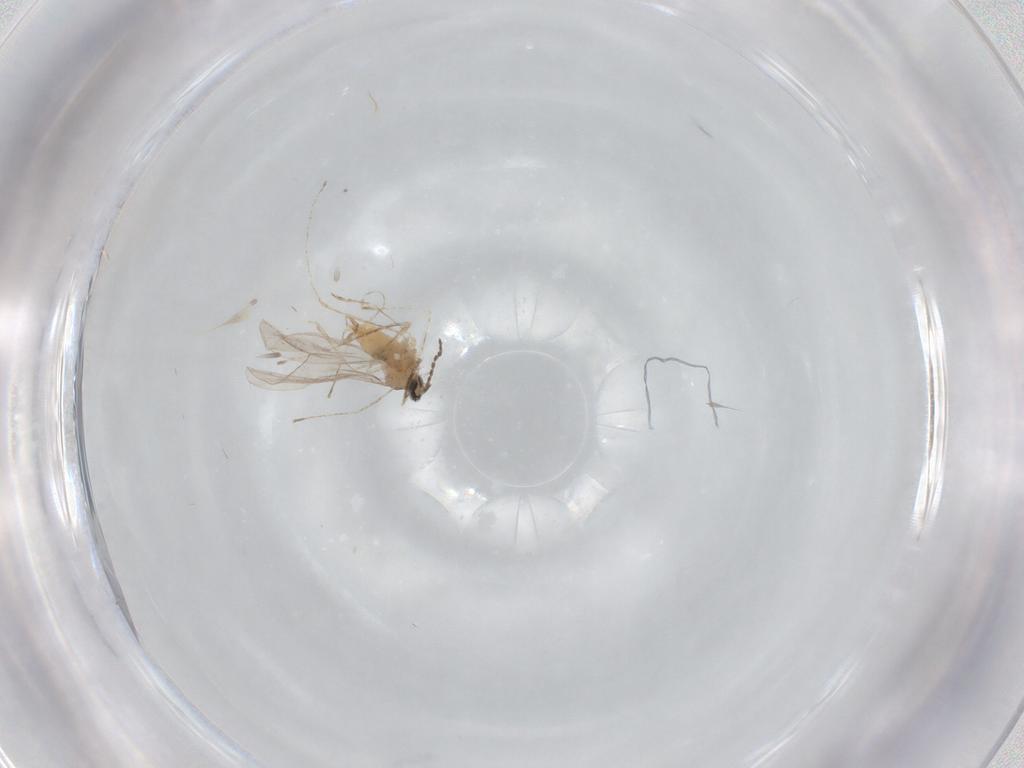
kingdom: Animalia
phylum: Arthropoda
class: Insecta
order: Diptera
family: Cecidomyiidae
